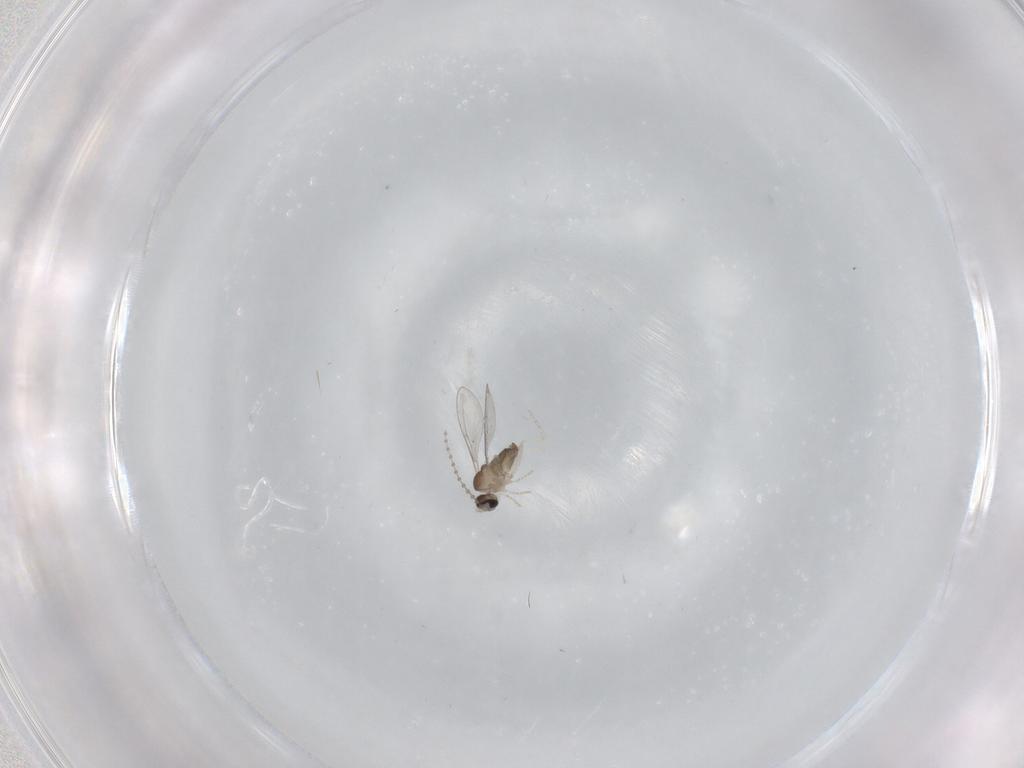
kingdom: Animalia
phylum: Arthropoda
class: Insecta
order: Diptera
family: Cecidomyiidae
